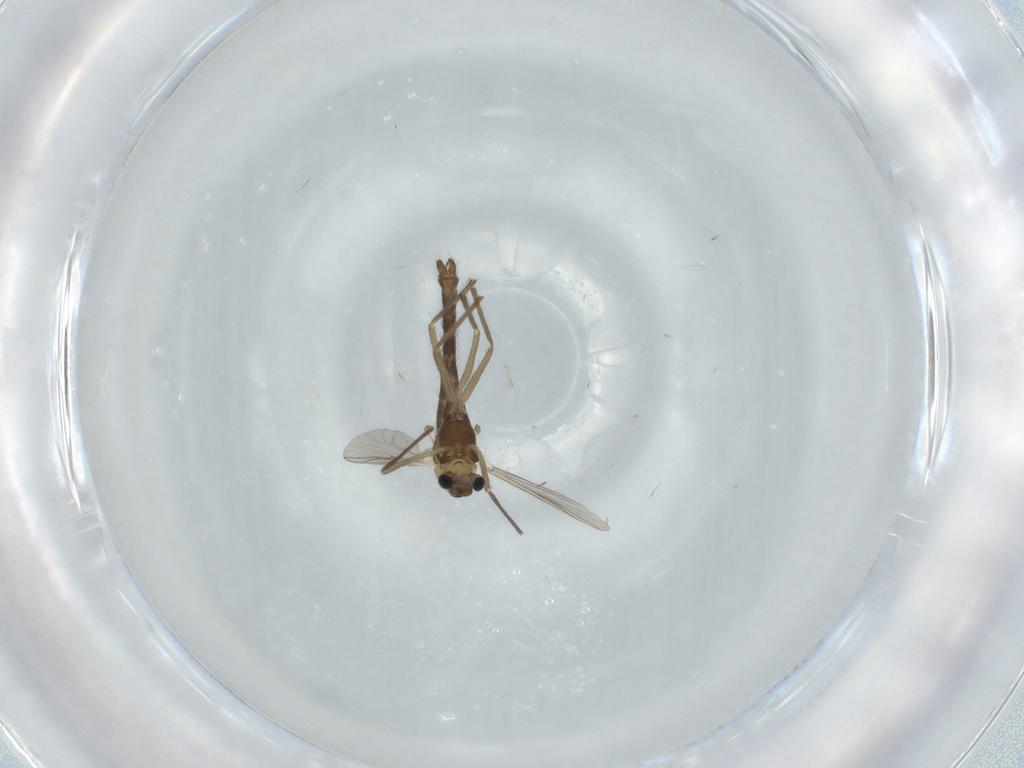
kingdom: Animalia
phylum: Arthropoda
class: Insecta
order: Diptera
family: Chironomidae
